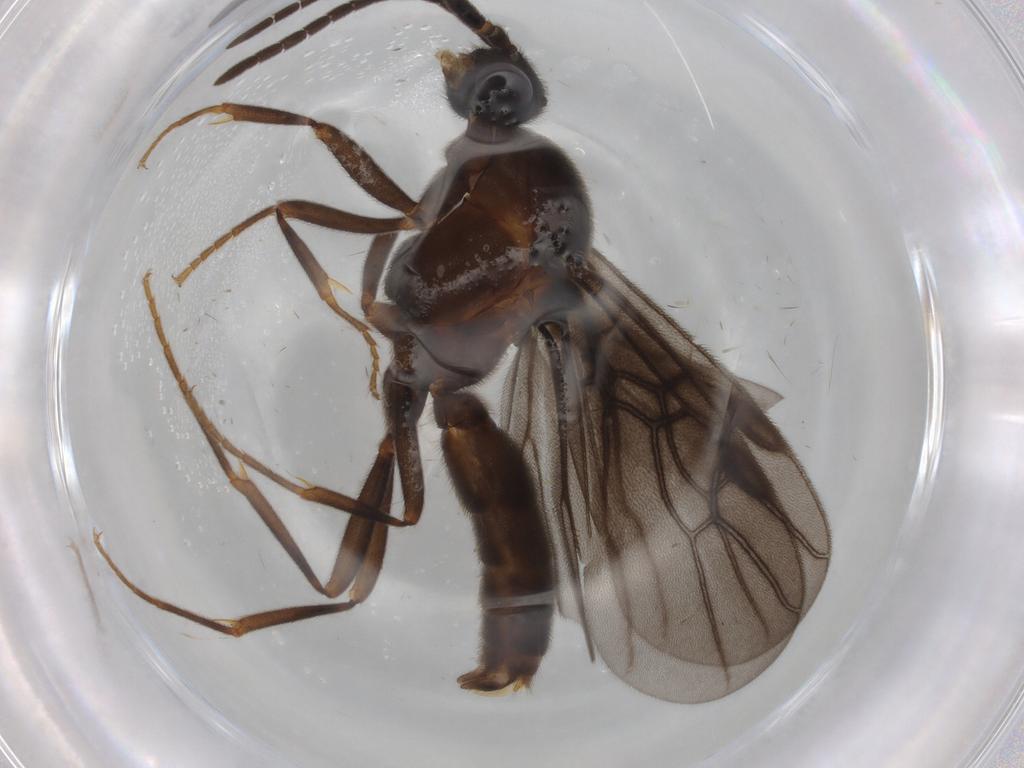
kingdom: Animalia
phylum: Arthropoda
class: Insecta
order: Hymenoptera
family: Formicidae
